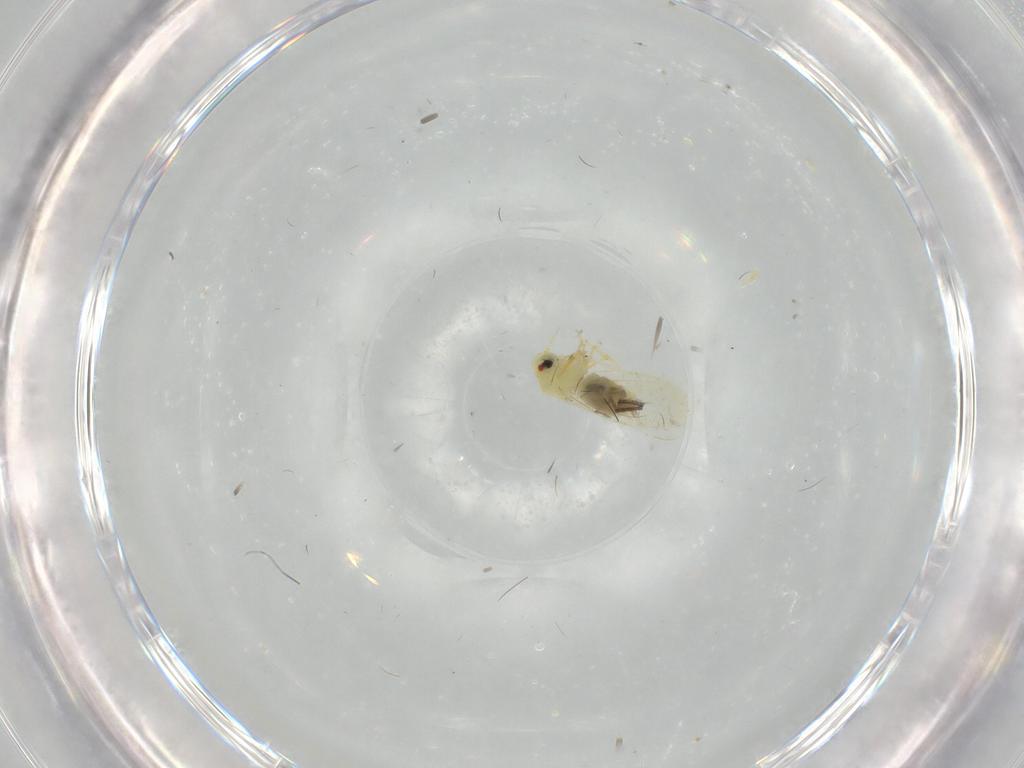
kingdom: Animalia
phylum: Arthropoda
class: Insecta
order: Hemiptera
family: Aleyrodidae
